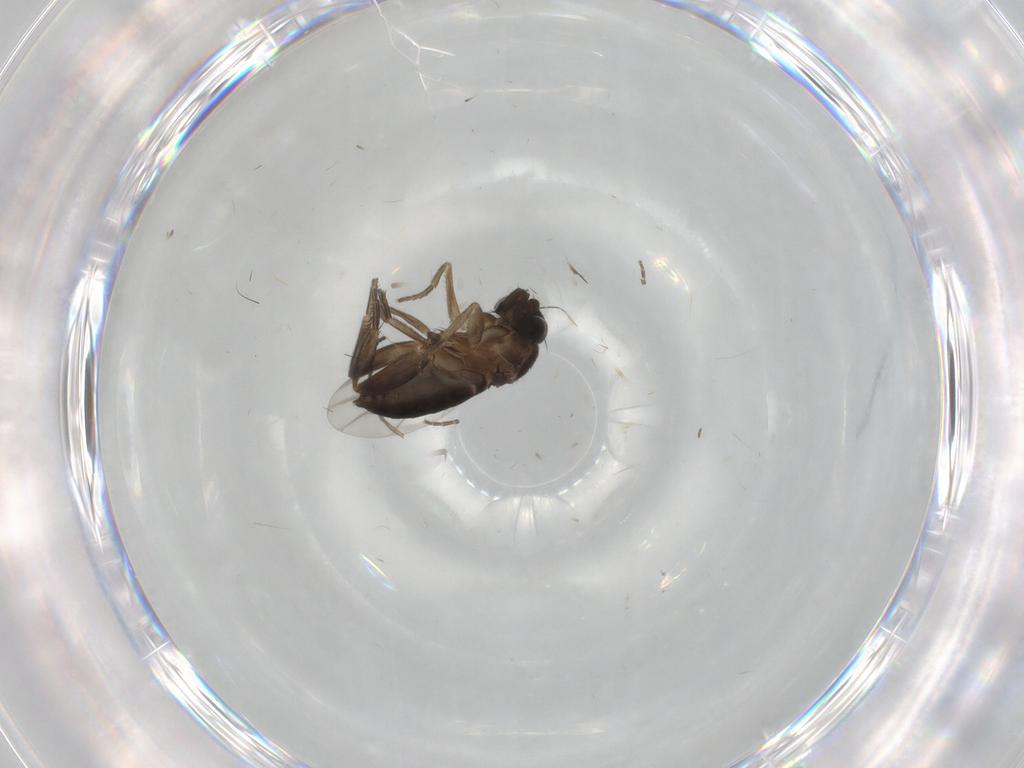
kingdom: Animalia
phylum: Arthropoda
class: Insecta
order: Diptera
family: Phoridae
